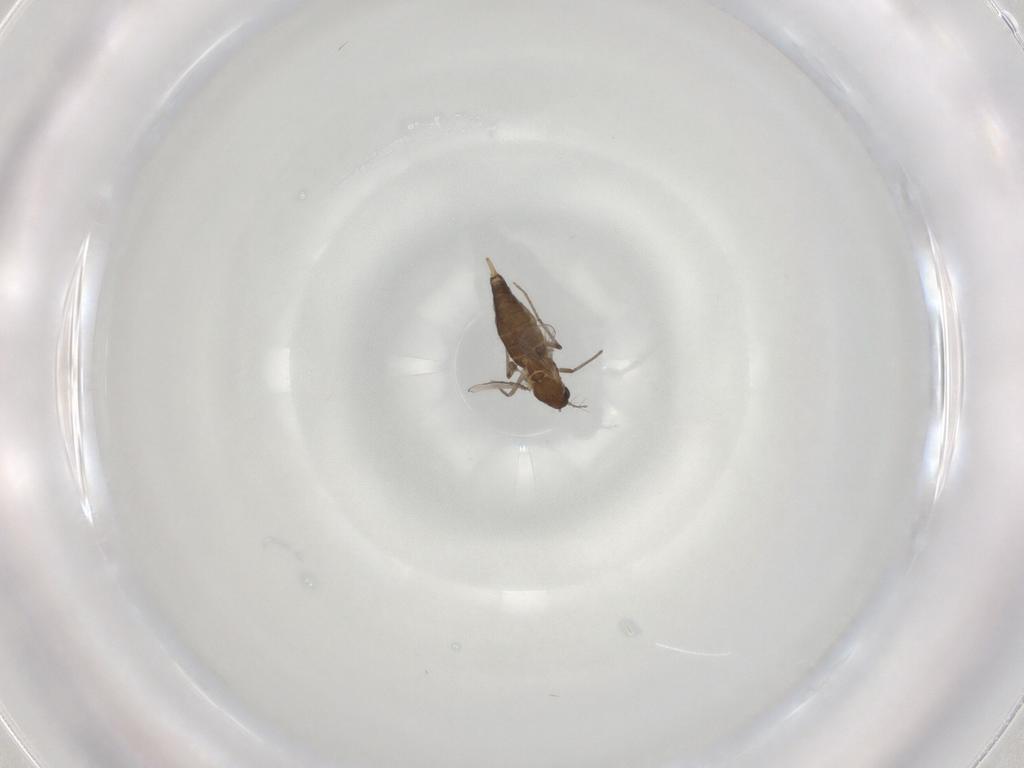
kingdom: Animalia
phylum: Arthropoda
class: Insecta
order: Diptera
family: Chironomidae
